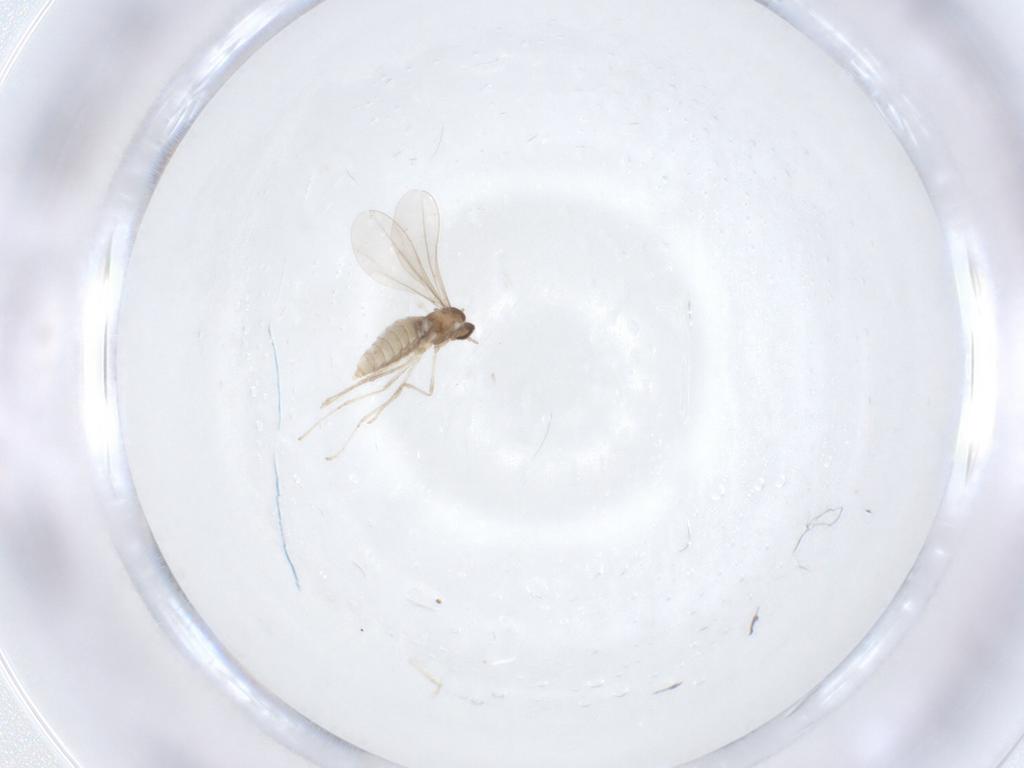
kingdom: Animalia
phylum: Arthropoda
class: Insecta
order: Diptera
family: Cecidomyiidae
